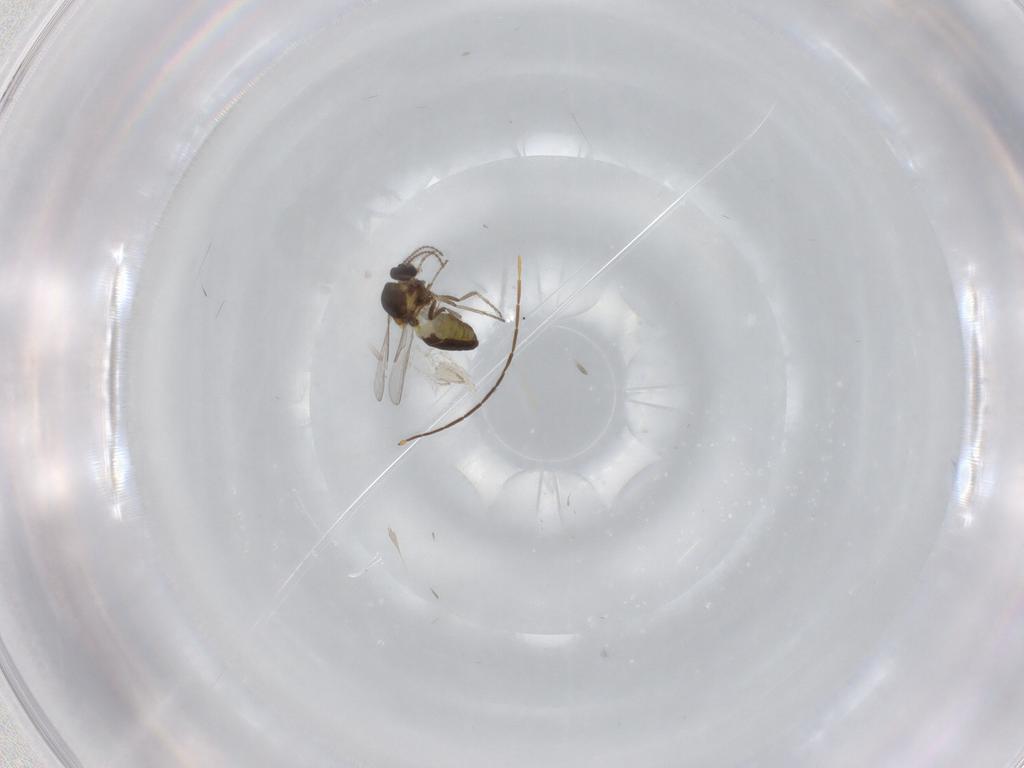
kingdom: Animalia
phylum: Arthropoda
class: Insecta
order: Diptera
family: Ceratopogonidae
